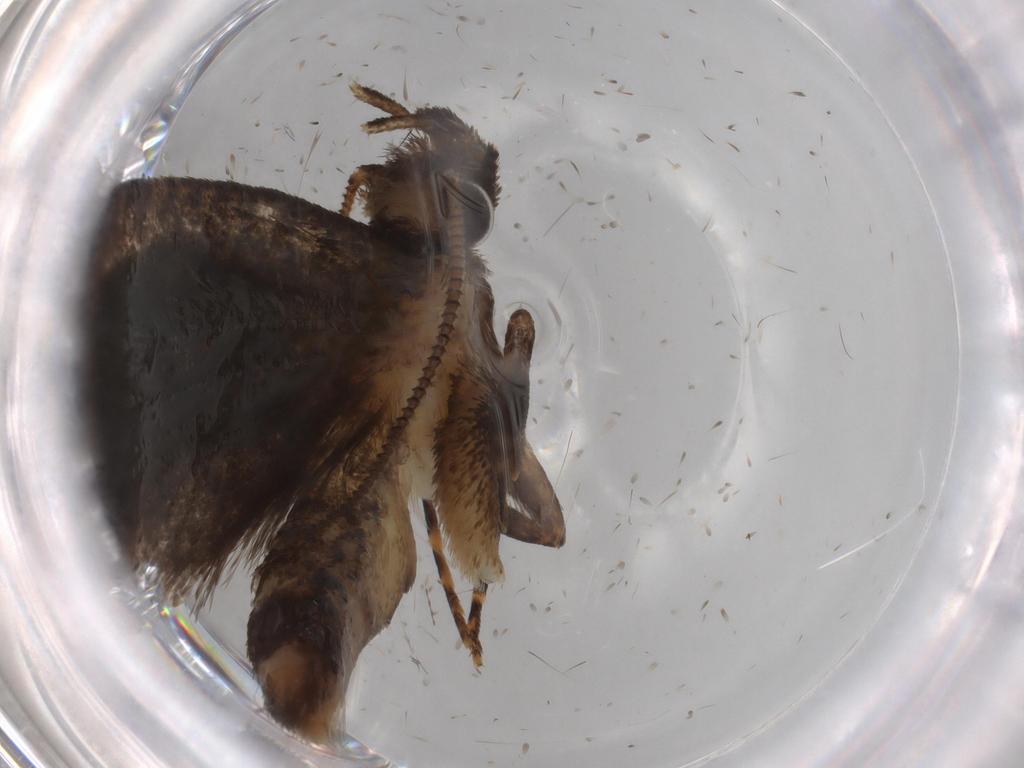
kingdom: Animalia
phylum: Arthropoda
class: Insecta
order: Lepidoptera
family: Tineidae
